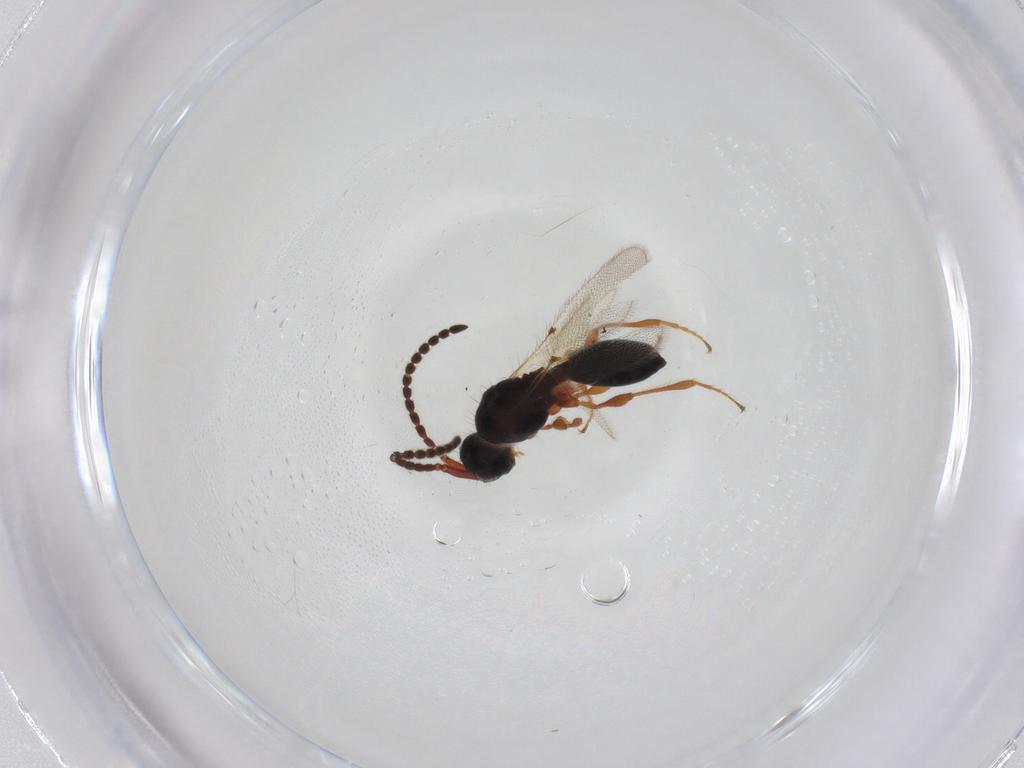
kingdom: Animalia
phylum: Arthropoda
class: Insecta
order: Hymenoptera
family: Diapriidae
